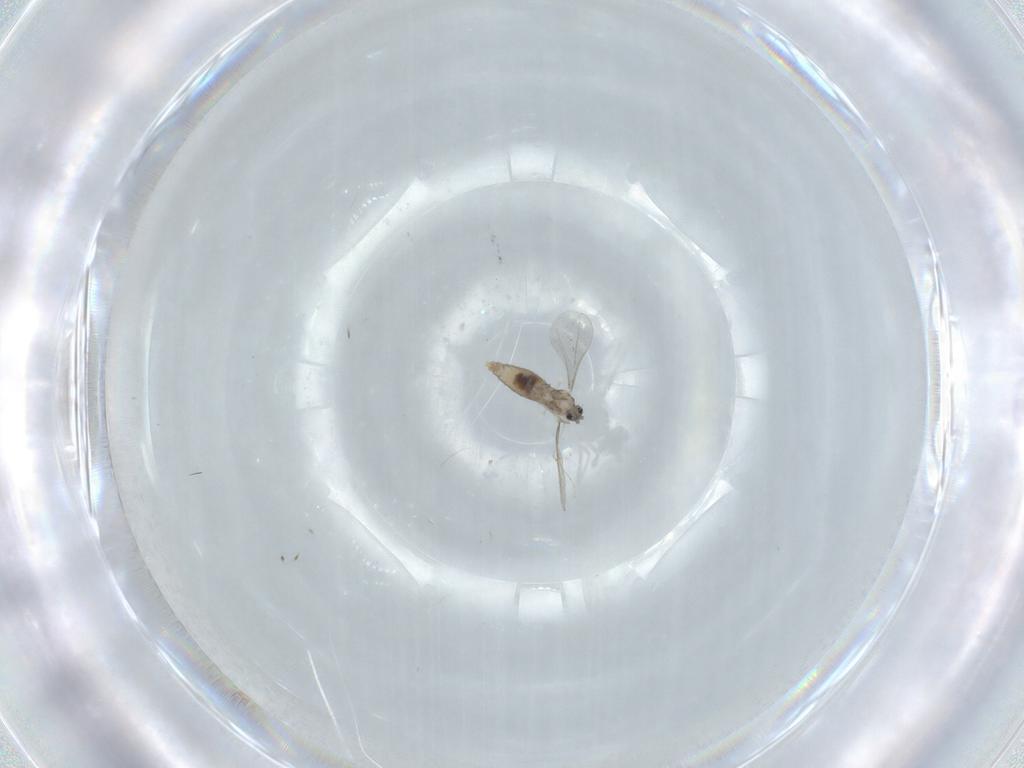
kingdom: Animalia
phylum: Arthropoda
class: Insecta
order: Diptera
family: Cecidomyiidae
